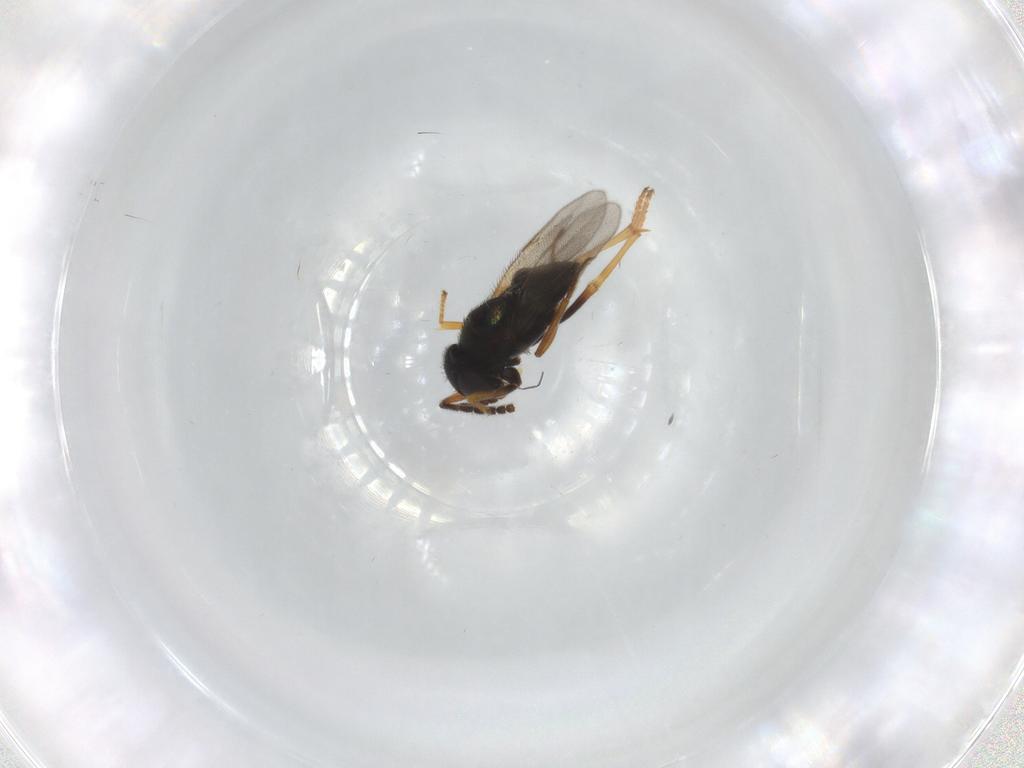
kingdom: Animalia
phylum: Arthropoda
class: Insecta
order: Hymenoptera
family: Encyrtidae
